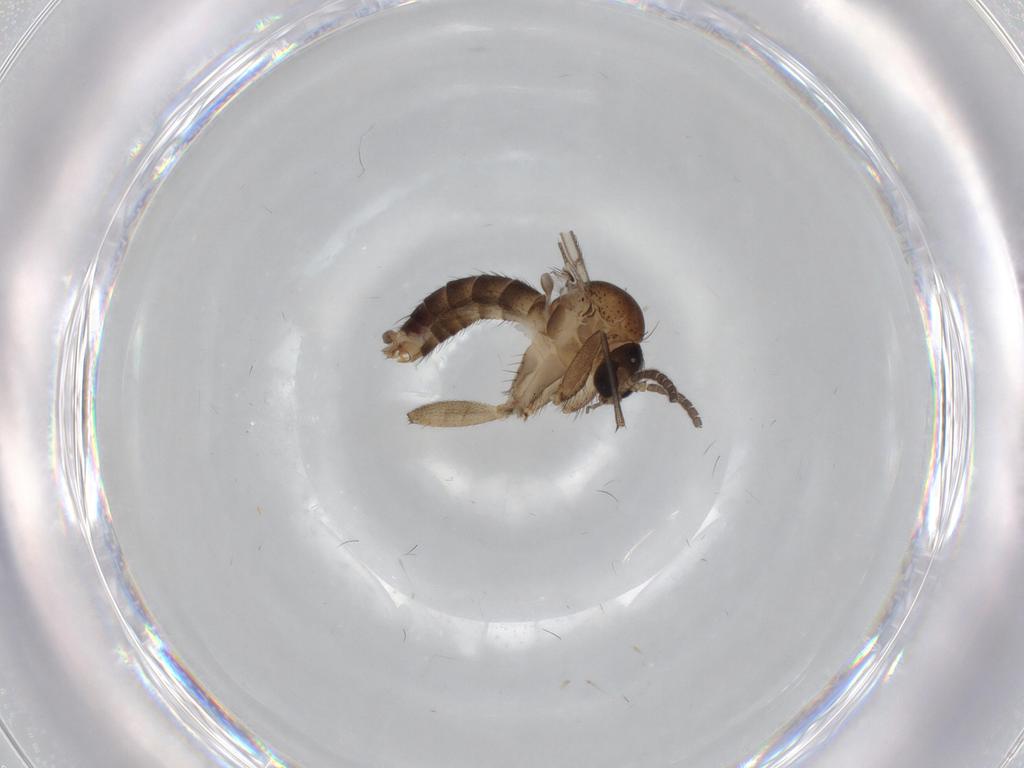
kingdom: Animalia
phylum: Arthropoda
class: Insecta
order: Diptera
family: Mycetophilidae
